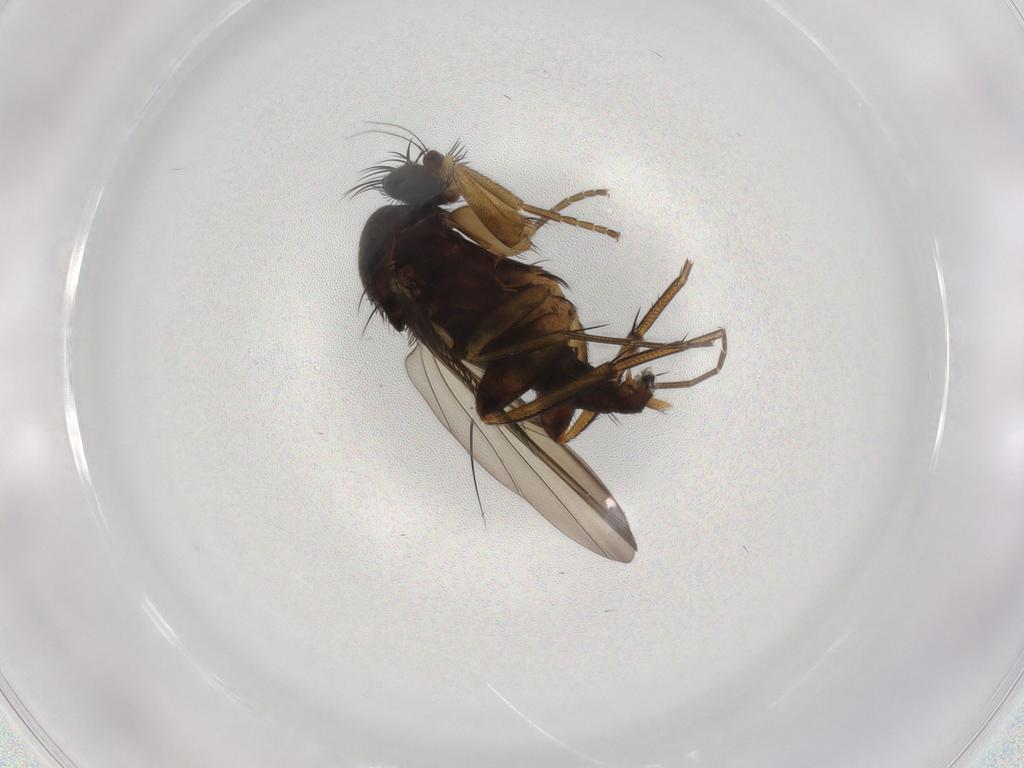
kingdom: Animalia
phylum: Arthropoda
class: Insecta
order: Diptera
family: Phoridae
